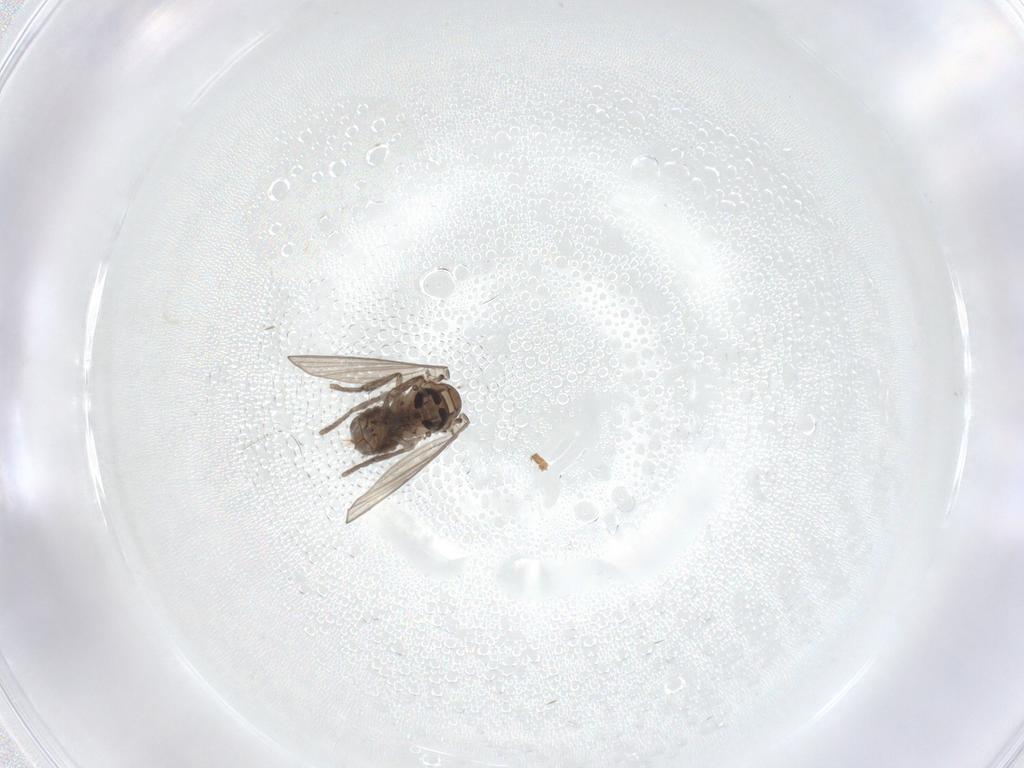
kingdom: Animalia
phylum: Arthropoda
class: Insecta
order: Diptera
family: Psychodidae
